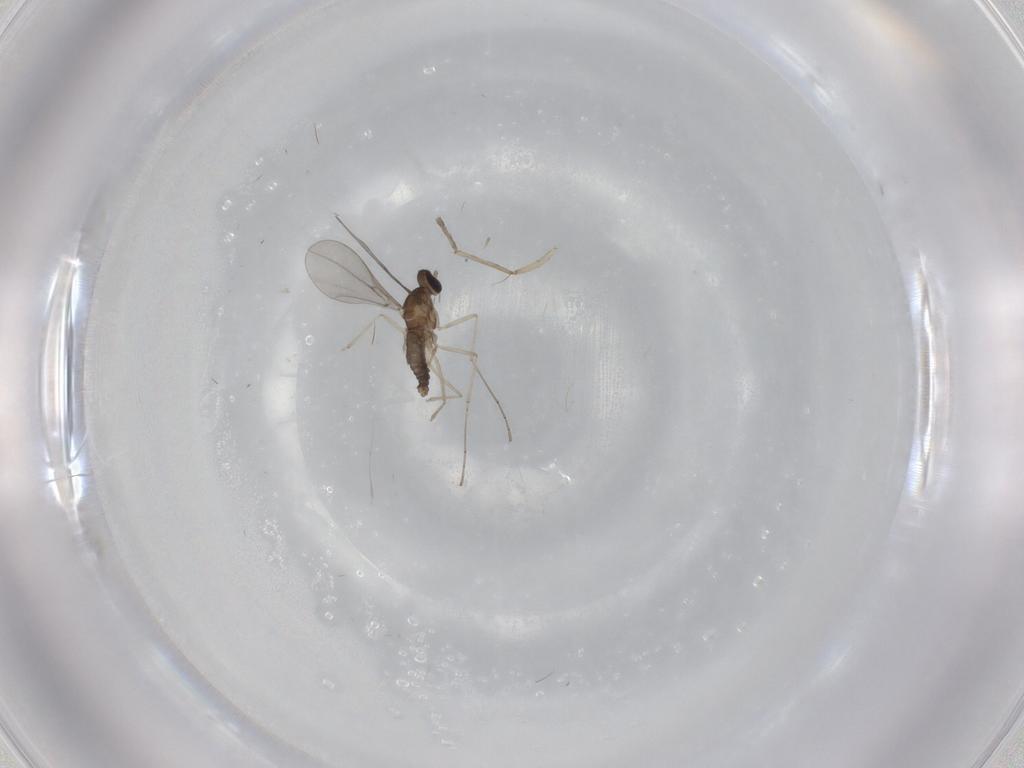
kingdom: Animalia
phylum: Arthropoda
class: Insecta
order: Diptera
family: Cecidomyiidae
